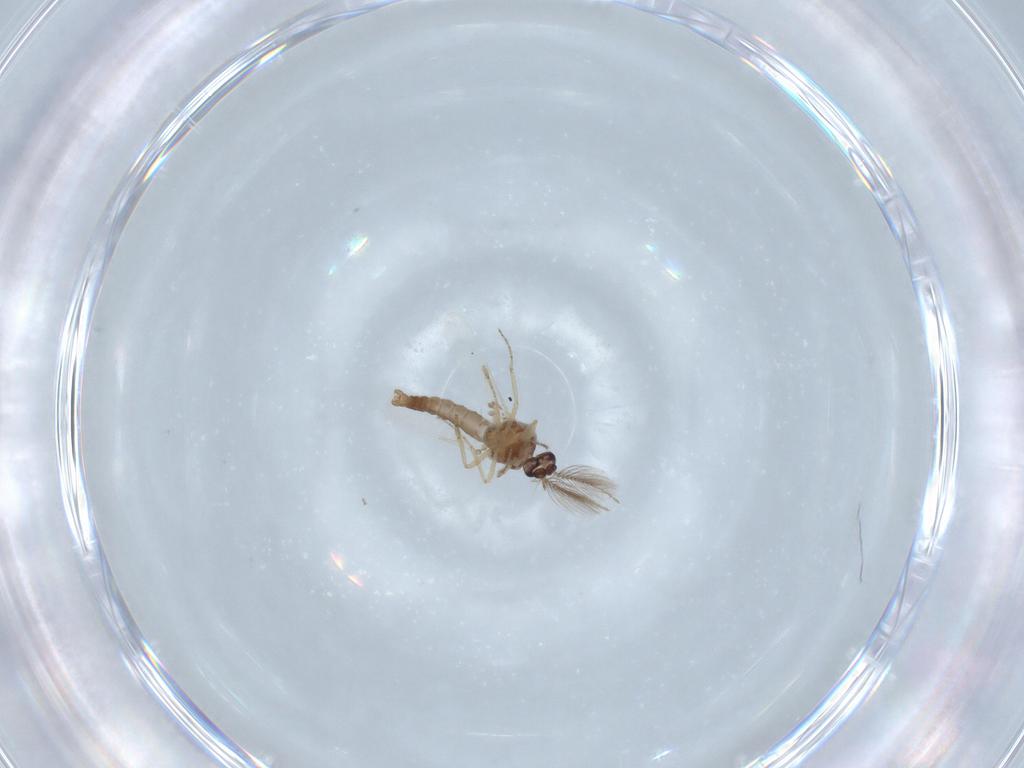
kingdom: Animalia
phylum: Arthropoda
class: Insecta
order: Diptera
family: Ceratopogonidae
